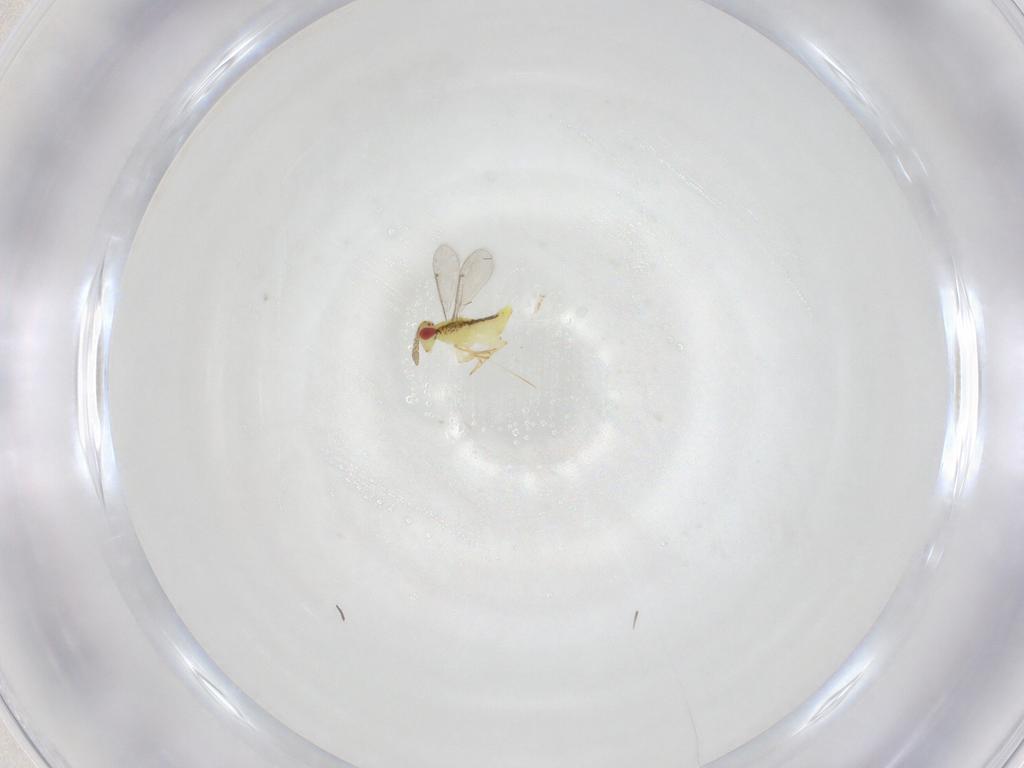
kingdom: Animalia
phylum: Arthropoda
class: Insecta
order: Hymenoptera
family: Aphelinidae
